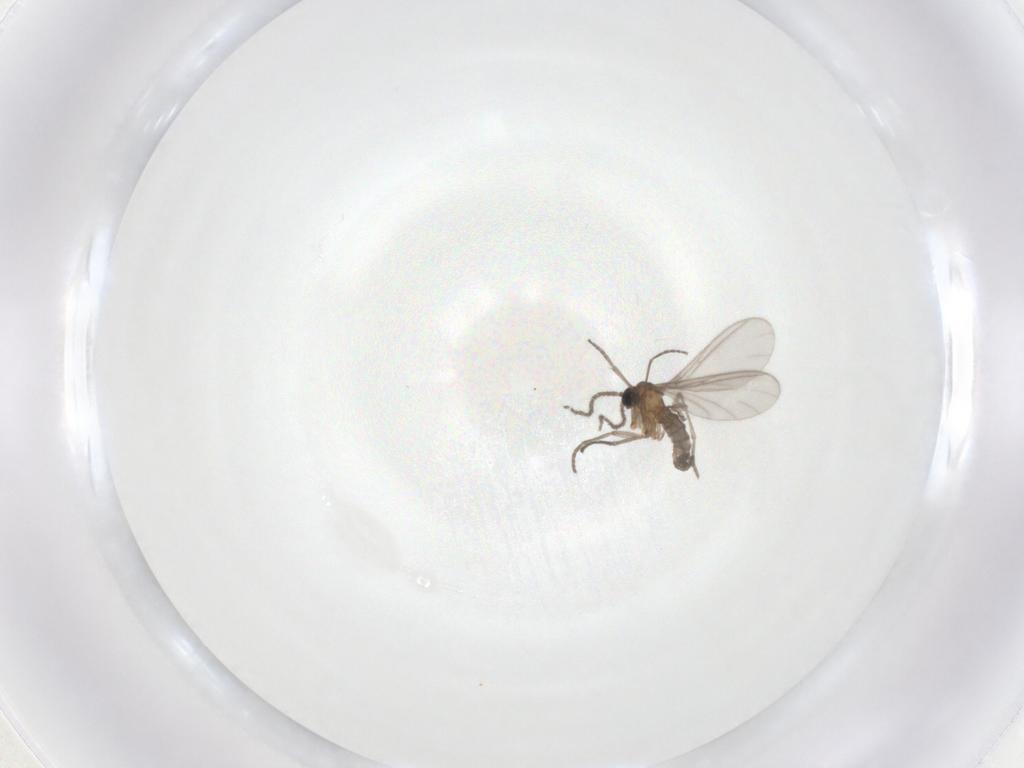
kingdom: Animalia
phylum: Arthropoda
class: Insecta
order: Diptera
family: Sciaridae
